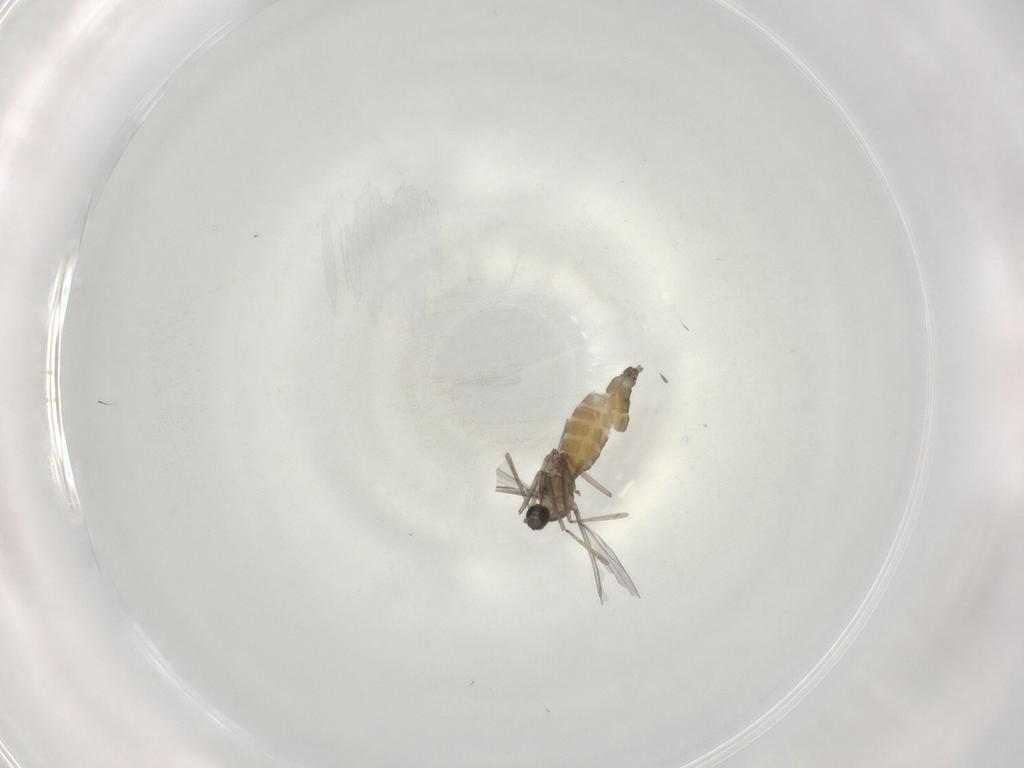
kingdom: Animalia
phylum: Arthropoda
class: Insecta
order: Diptera
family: Cecidomyiidae
